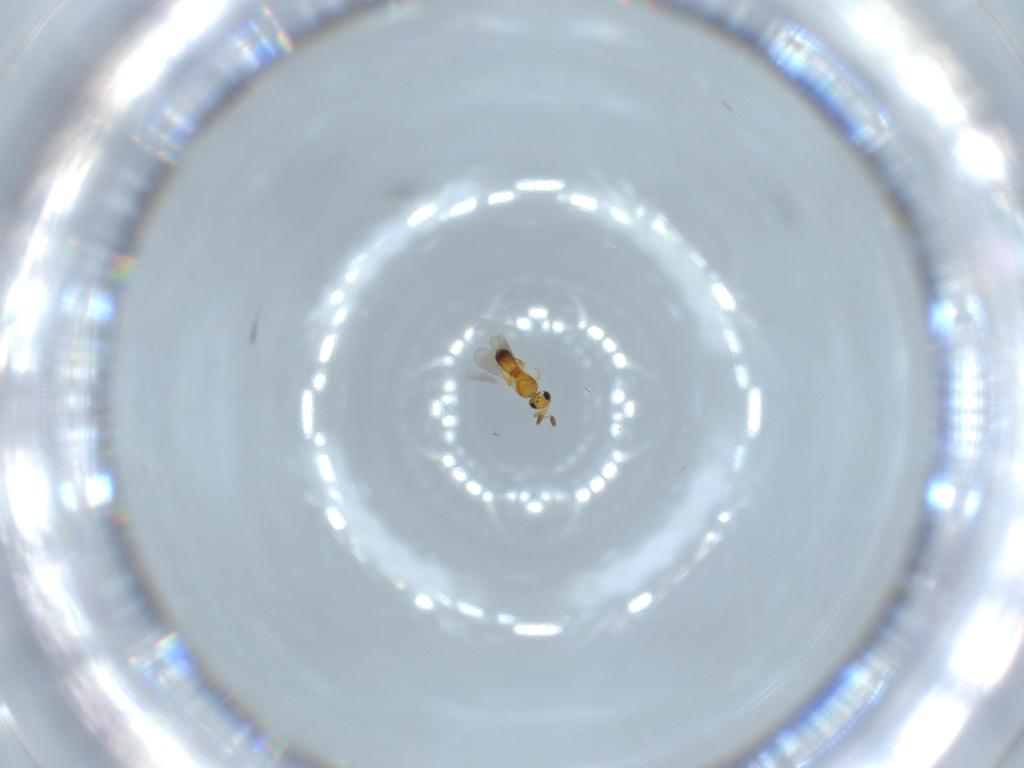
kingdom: Animalia
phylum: Arthropoda
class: Insecta
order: Hymenoptera
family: Platygastridae
